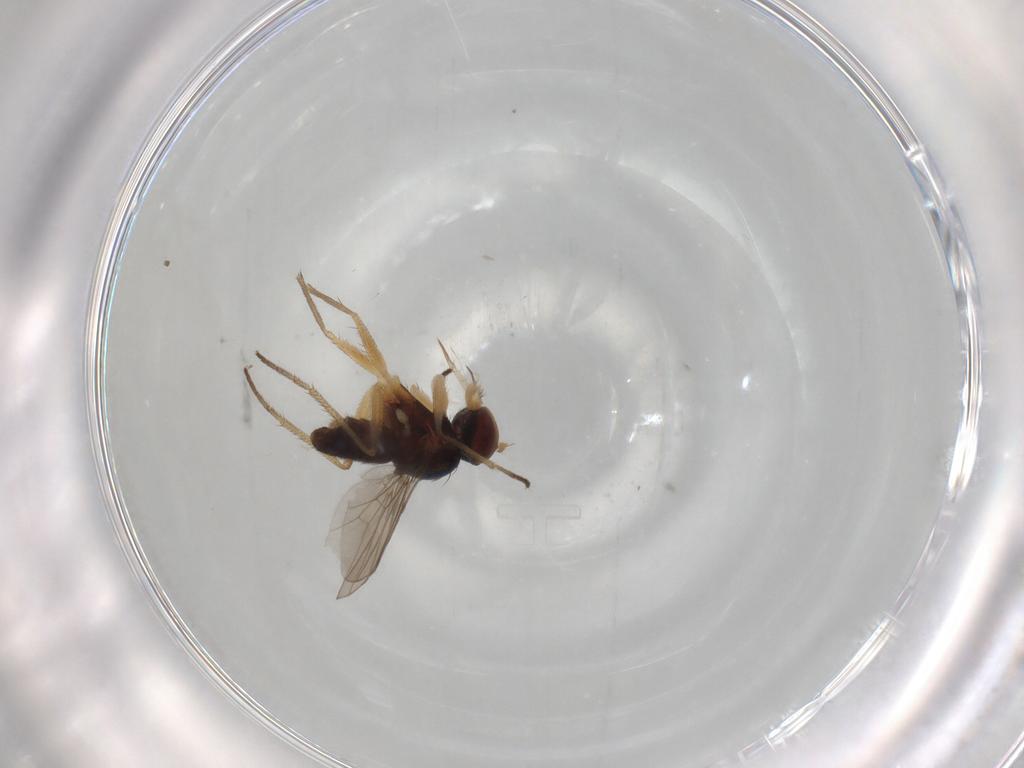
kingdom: Animalia
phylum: Arthropoda
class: Insecta
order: Diptera
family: Dolichopodidae
